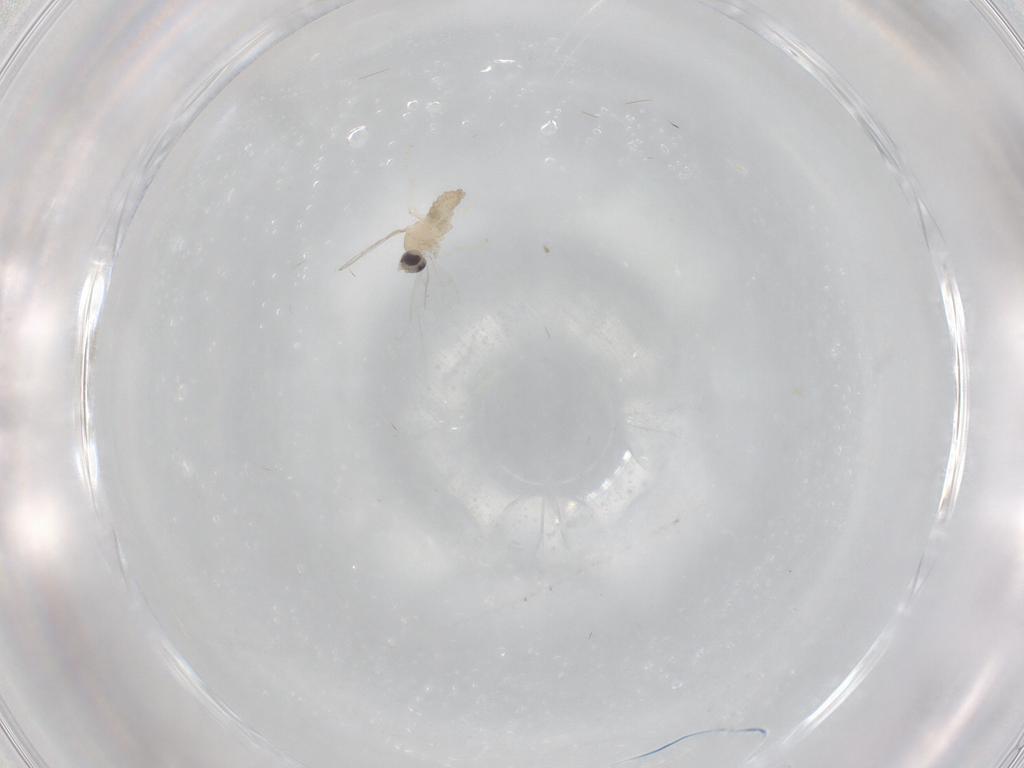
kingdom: Animalia
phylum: Arthropoda
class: Insecta
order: Diptera
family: Cecidomyiidae
